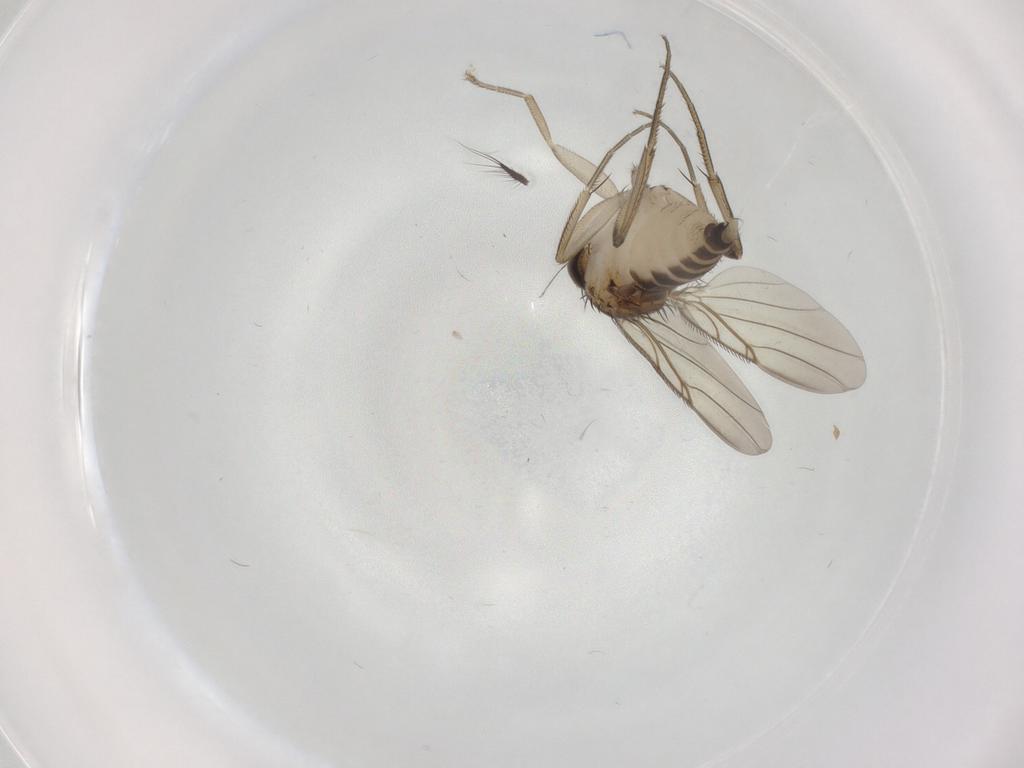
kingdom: Animalia
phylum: Arthropoda
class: Insecta
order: Diptera
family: Phoridae
